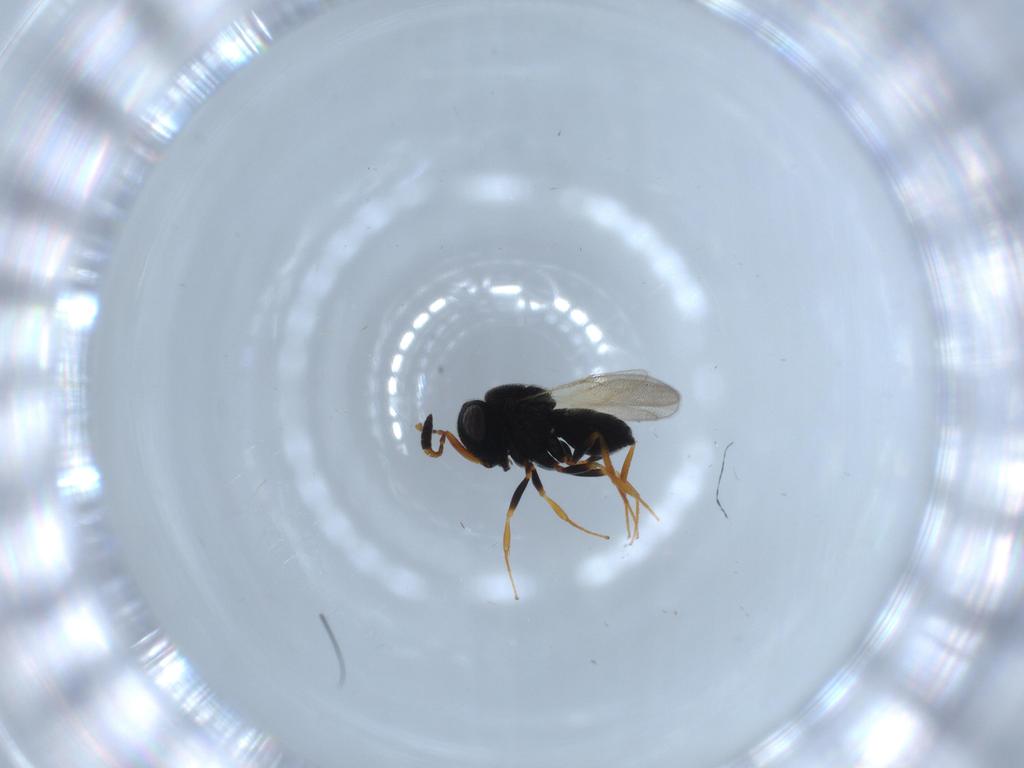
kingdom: Animalia
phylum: Arthropoda
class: Insecta
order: Hymenoptera
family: Scelionidae
